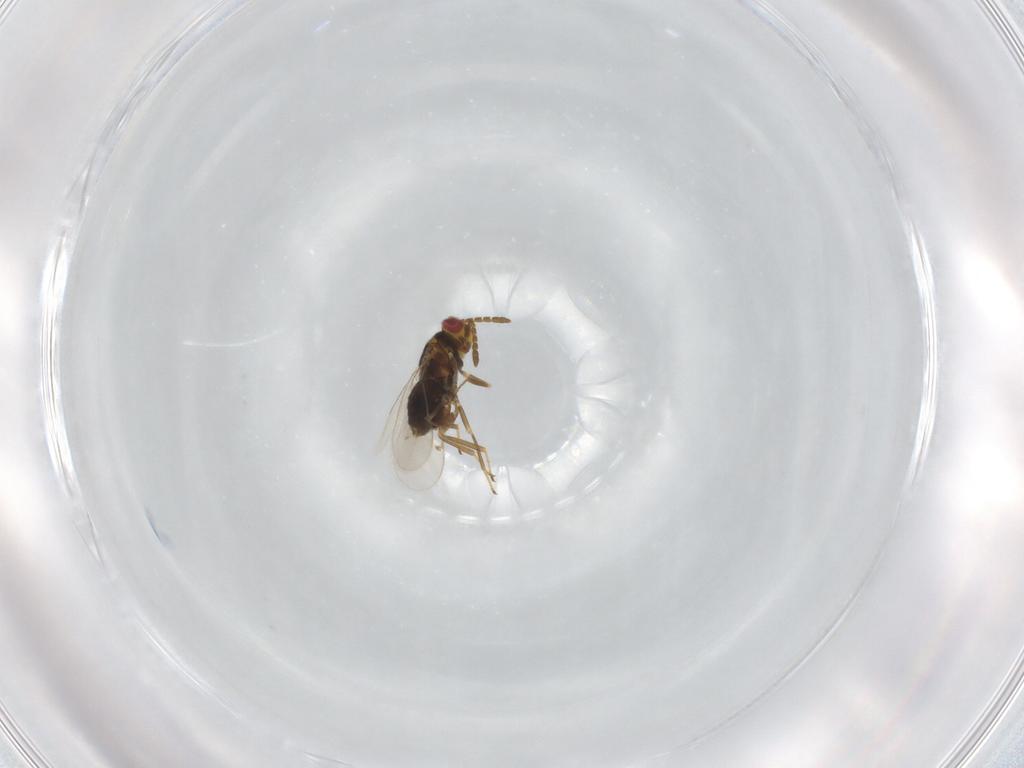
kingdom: Animalia
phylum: Arthropoda
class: Insecta
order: Hymenoptera
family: Aphelinidae
